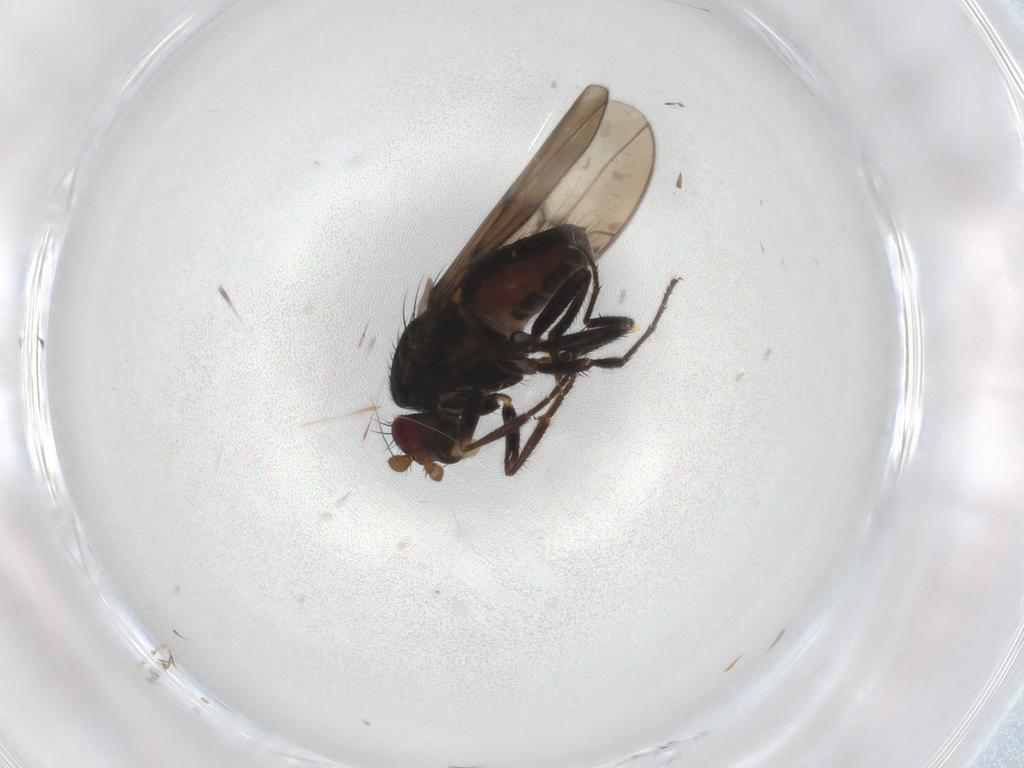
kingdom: Animalia
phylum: Arthropoda
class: Insecta
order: Diptera
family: Sphaeroceridae
